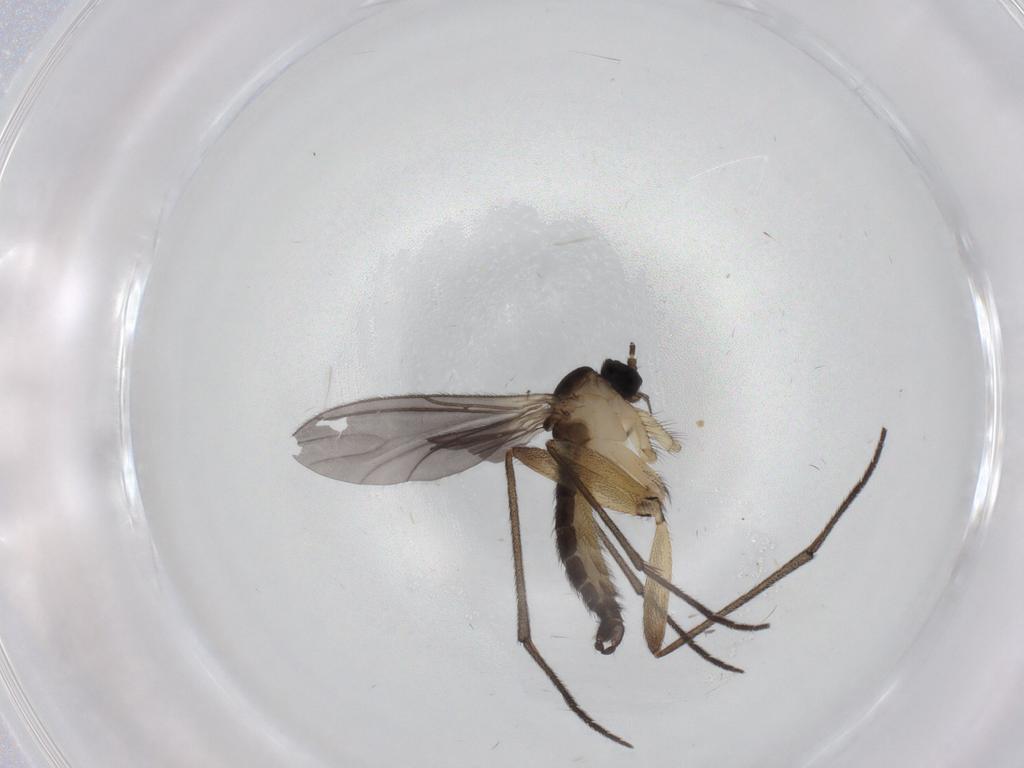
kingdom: Animalia
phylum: Arthropoda
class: Insecta
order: Diptera
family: Sciaridae
